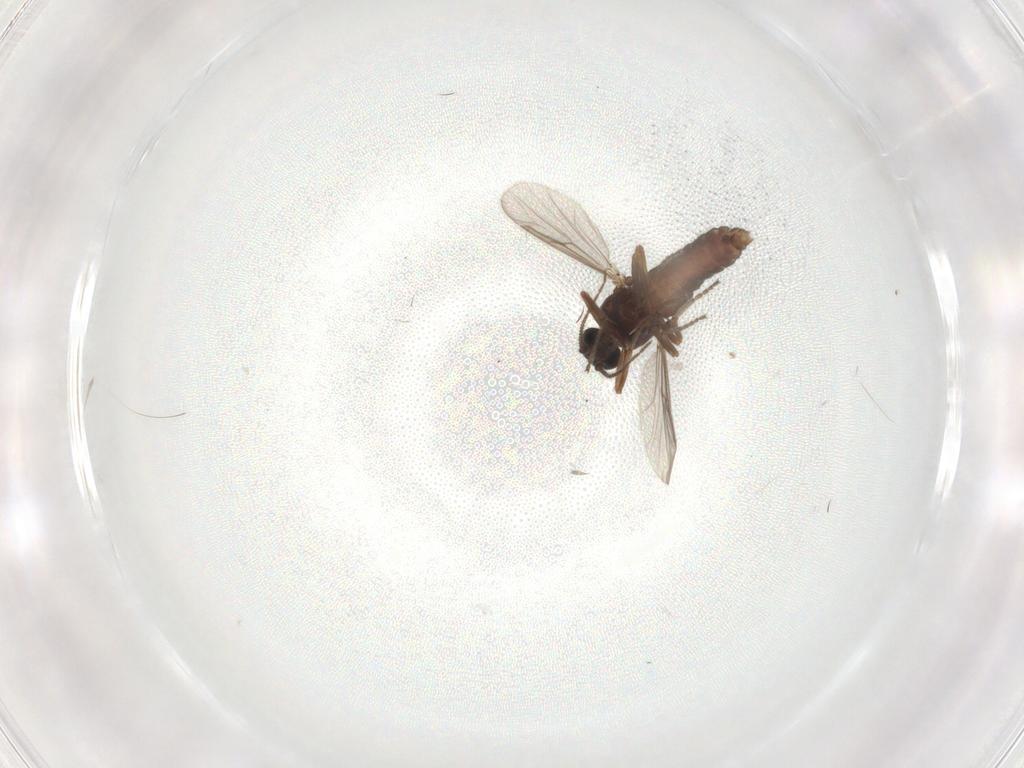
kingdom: Animalia
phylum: Arthropoda
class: Insecta
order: Diptera
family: Ceratopogonidae
